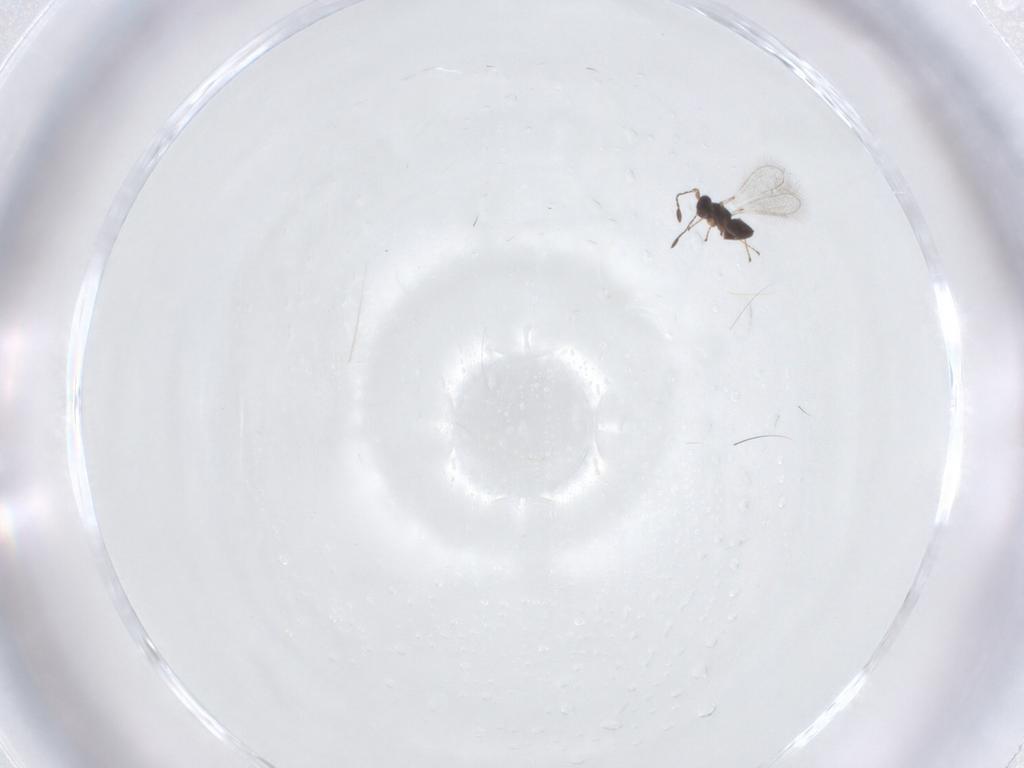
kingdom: Animalia
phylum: Arthropoda
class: Insecta
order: Hymenoptera
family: Mymaridae
